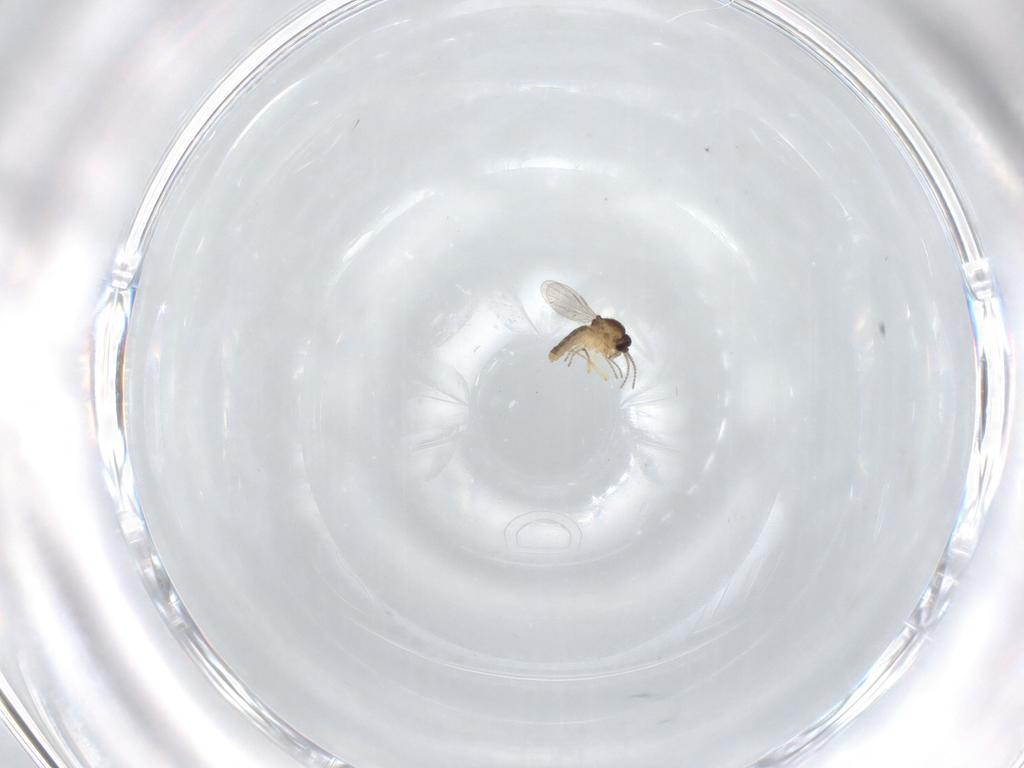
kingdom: Animalia
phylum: Arthropoda
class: Insecta
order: Diptera
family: Ceratopogonidae
